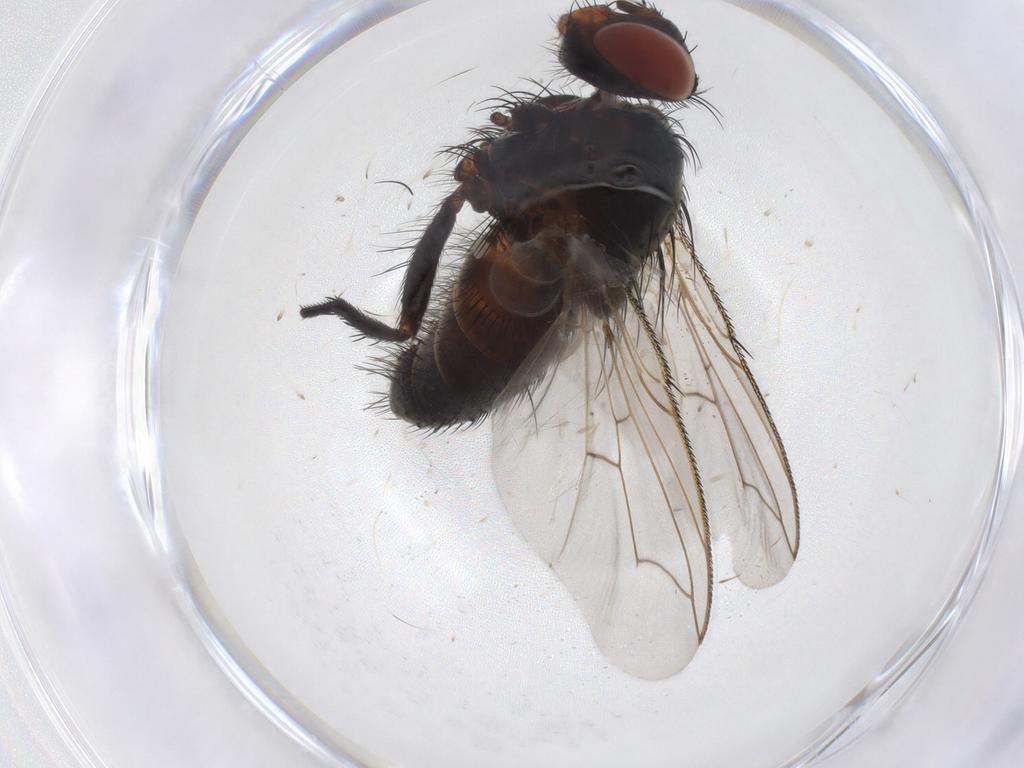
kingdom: Animalia
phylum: Arthropoda
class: Insecta
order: Diptera
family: Tachinidae
